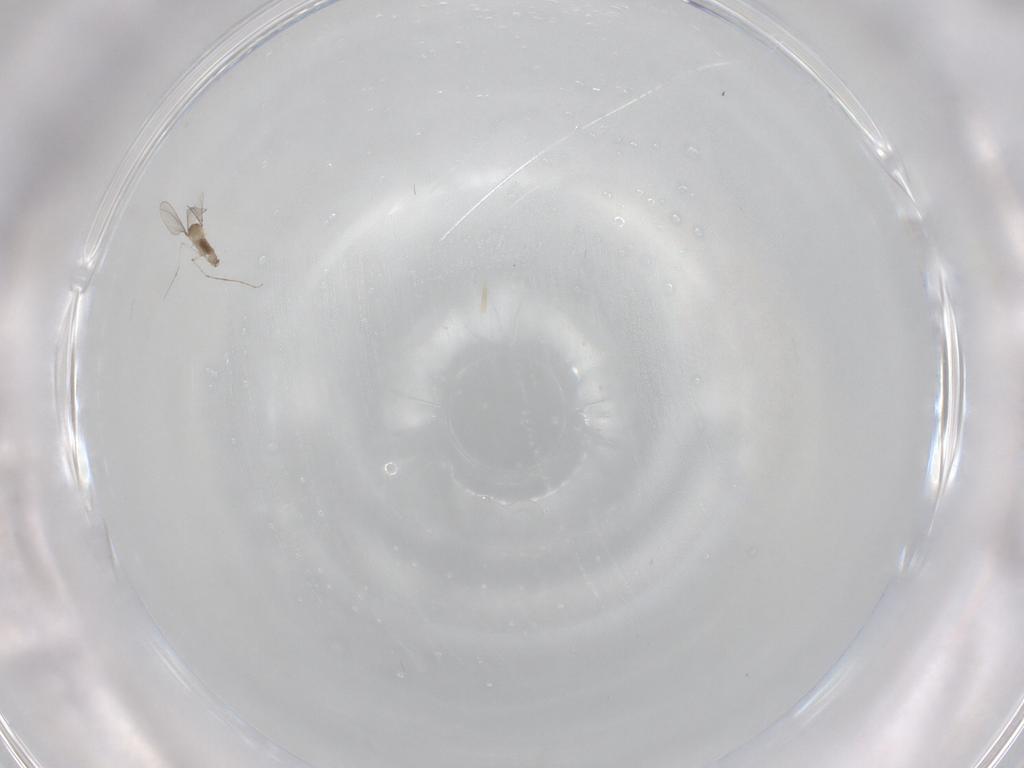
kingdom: Animalia
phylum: Arthropoda
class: Insecta
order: Diptera
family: Cecidomyiidae
